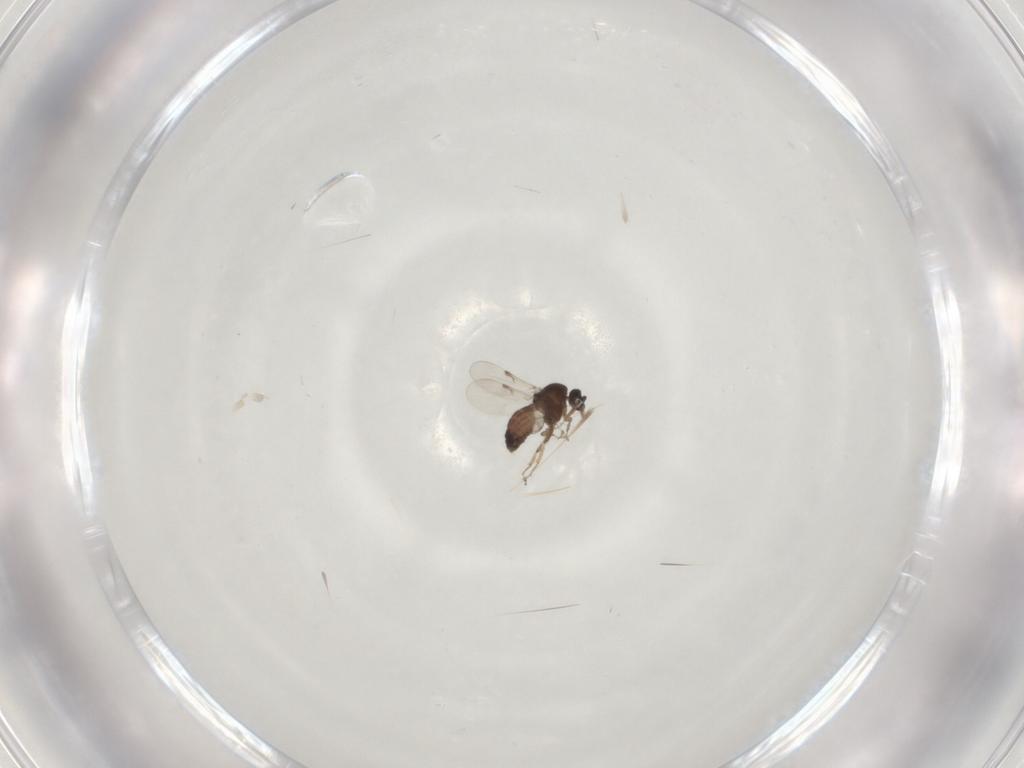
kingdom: Animalia
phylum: Arthropoda
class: Insecta
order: Diptera
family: Ceratopogonidae
